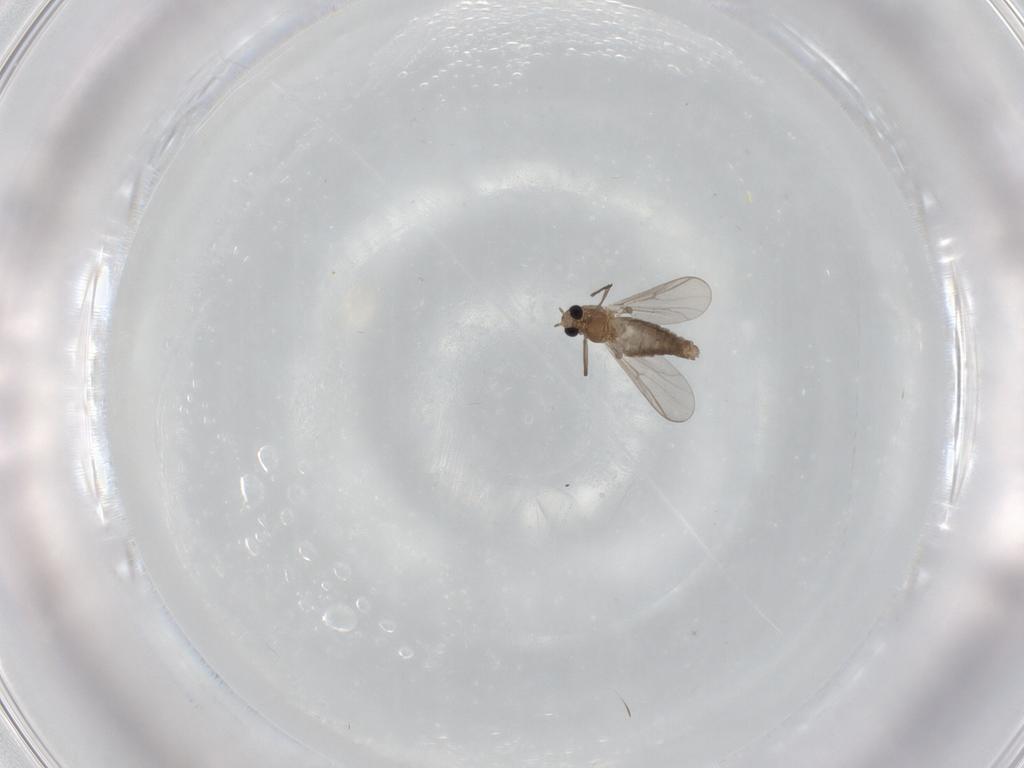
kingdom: Animalia
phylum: Arthropoda
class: Insecta
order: Diptera
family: Chironomidae
